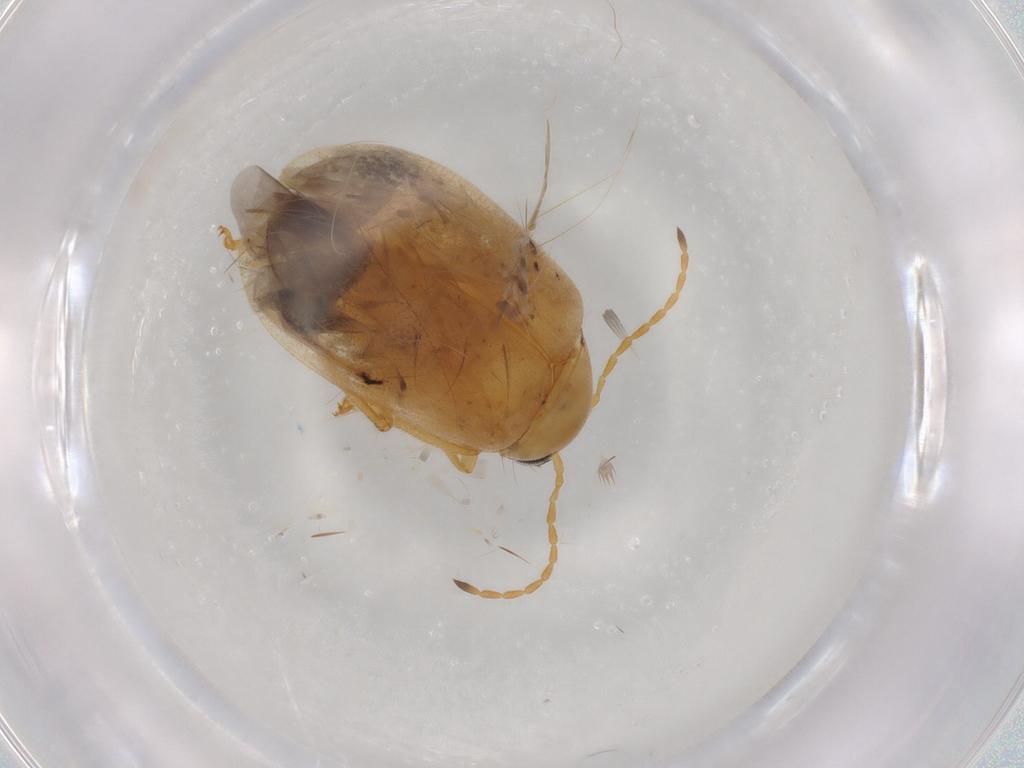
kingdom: Animalia
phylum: Arthropoda
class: Insecta
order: Coleoptera
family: Chrysomelidae
